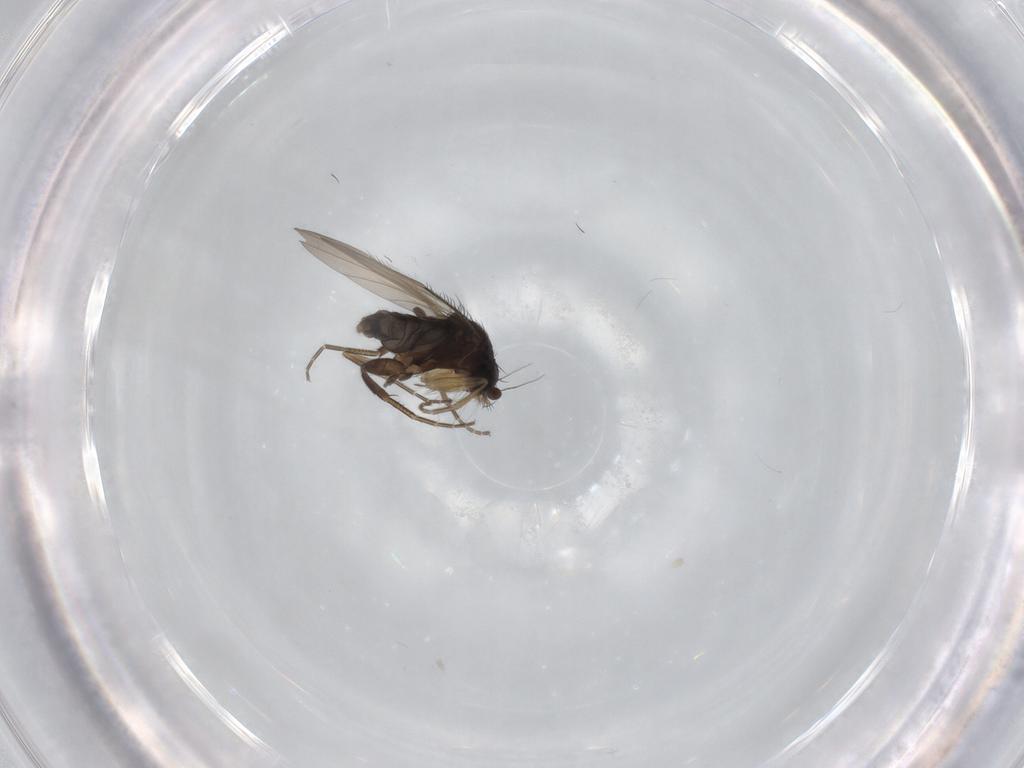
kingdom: Animalia
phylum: Arthropoda
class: Insecta
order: Diptera
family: Phoridae
